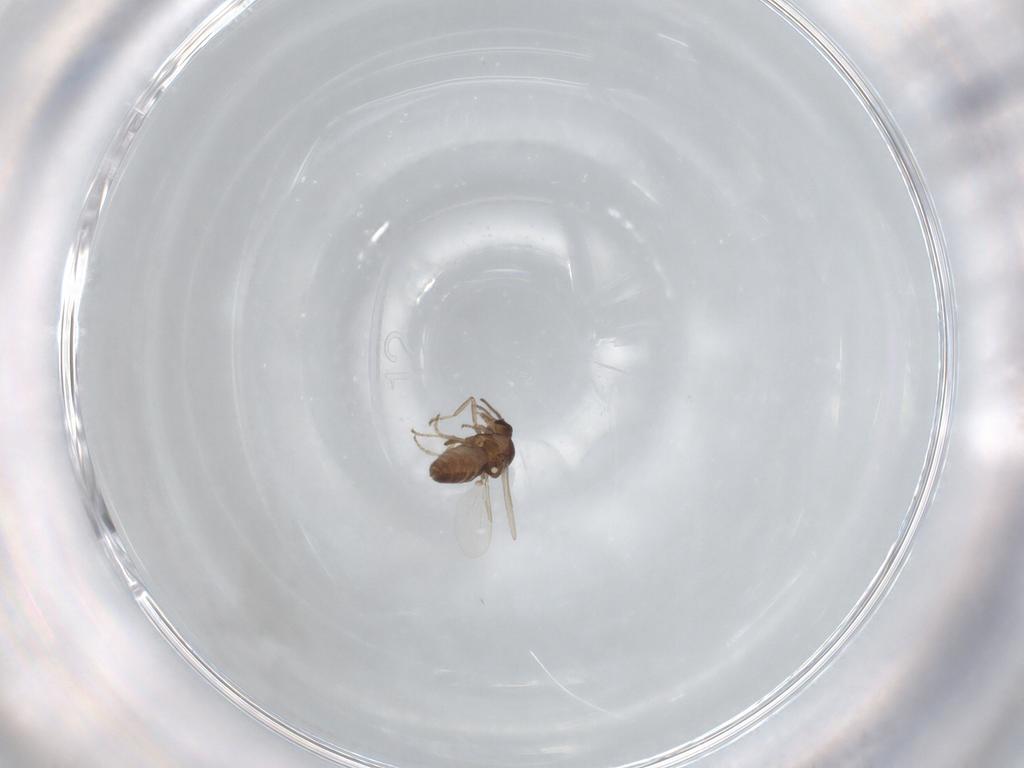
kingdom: Animalia
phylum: Arthropoda
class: Insecta
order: Diptera
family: Ceratopogonidae
